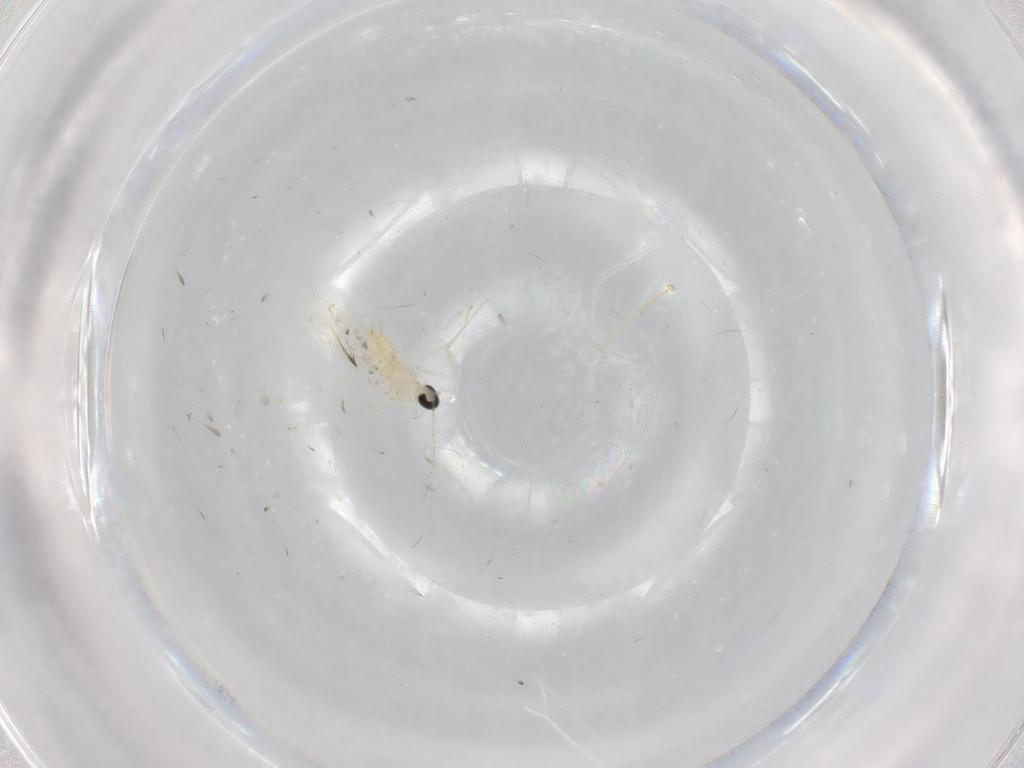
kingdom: Animalia
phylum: Arthropoda
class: Insecta
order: Diptera
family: Cecidomyiidae
